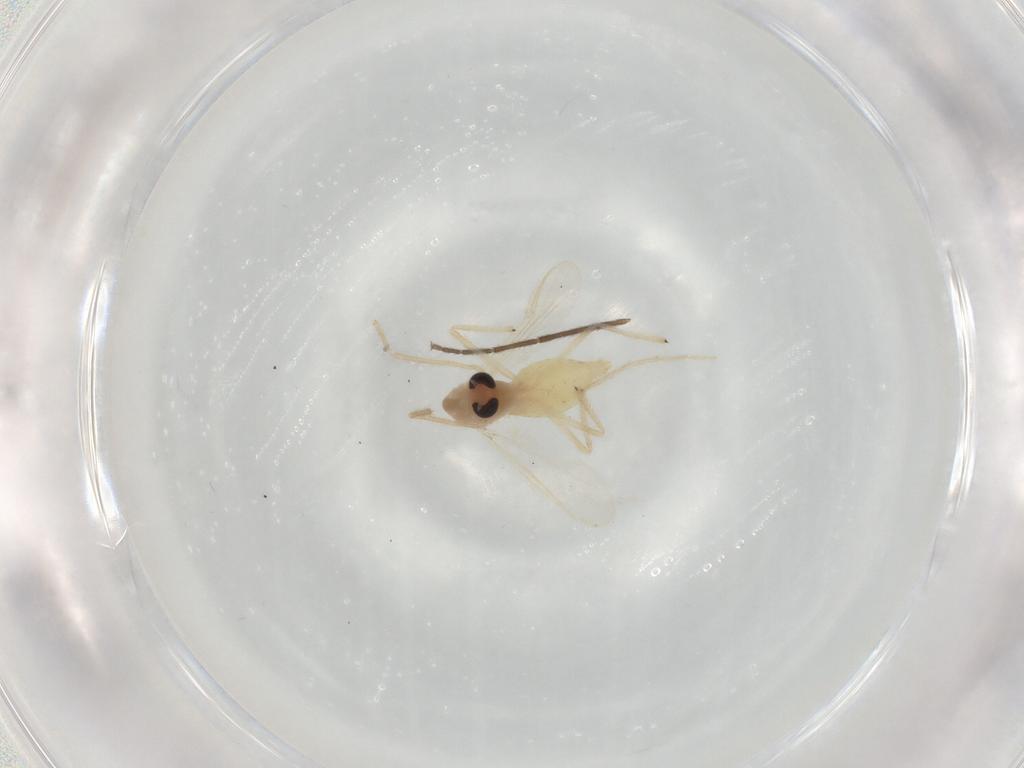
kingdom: Animalia
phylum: Arthropoda
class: Insecta
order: Diptera
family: Chironomidae
